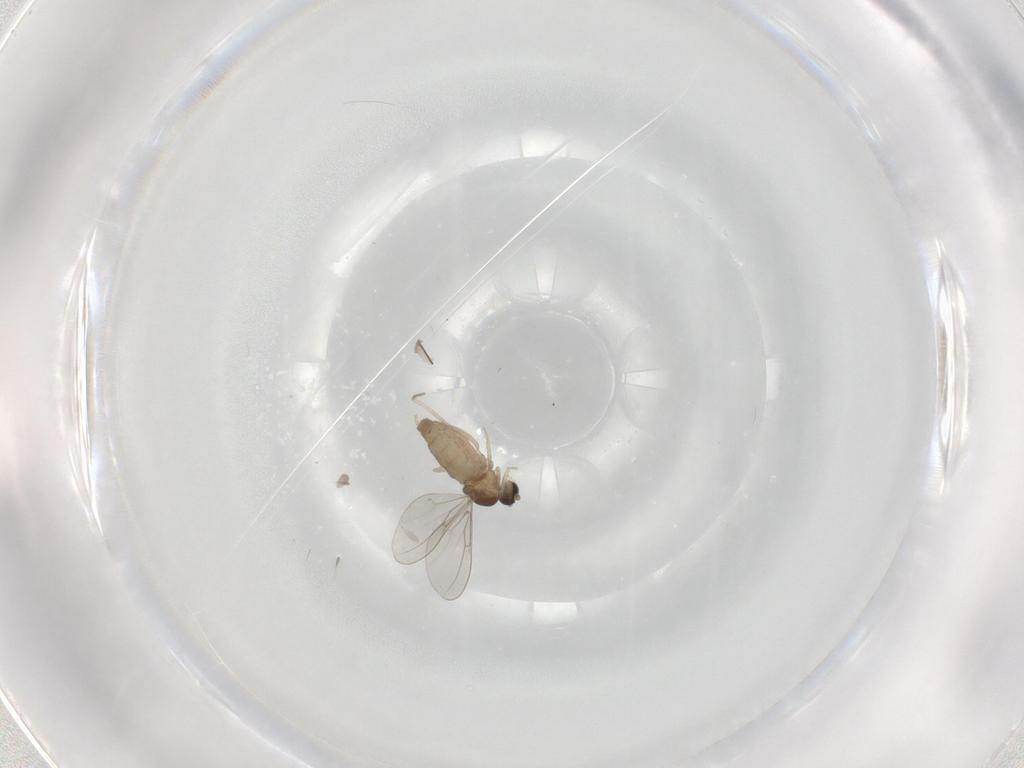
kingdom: Animalia
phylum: Arthropoda
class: Insecta
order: Diptera
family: Cecidomyiidae
